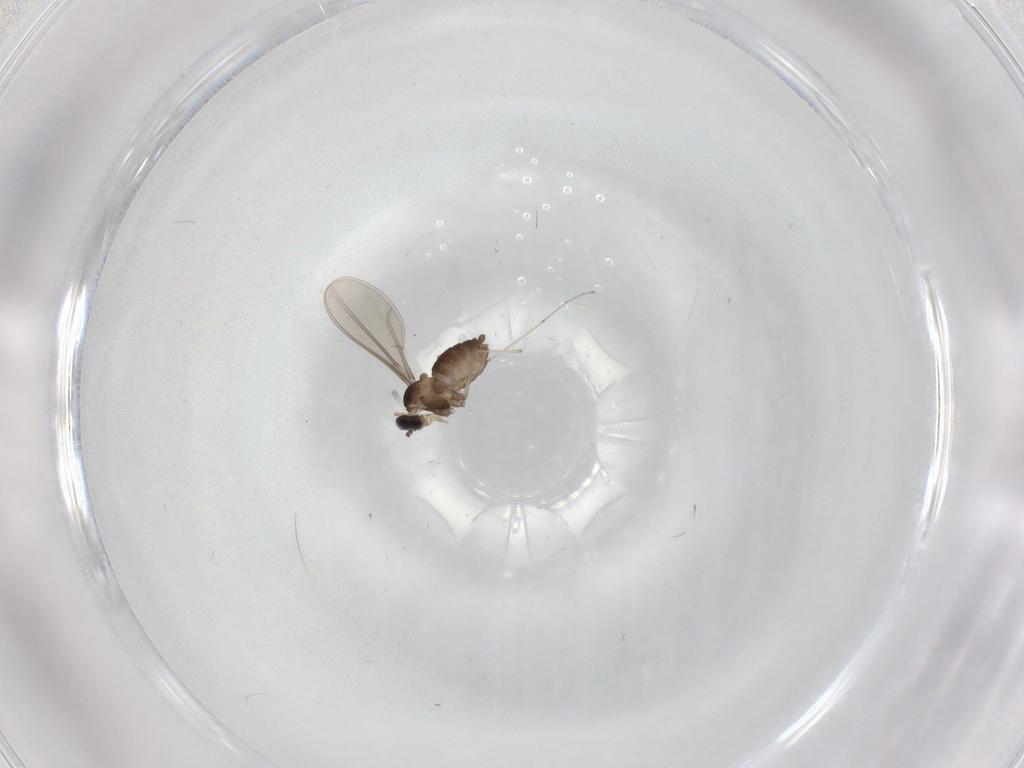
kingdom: Animalia
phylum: Arthropoda
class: Insecta
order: Diptera
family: Cecidomyiidae
